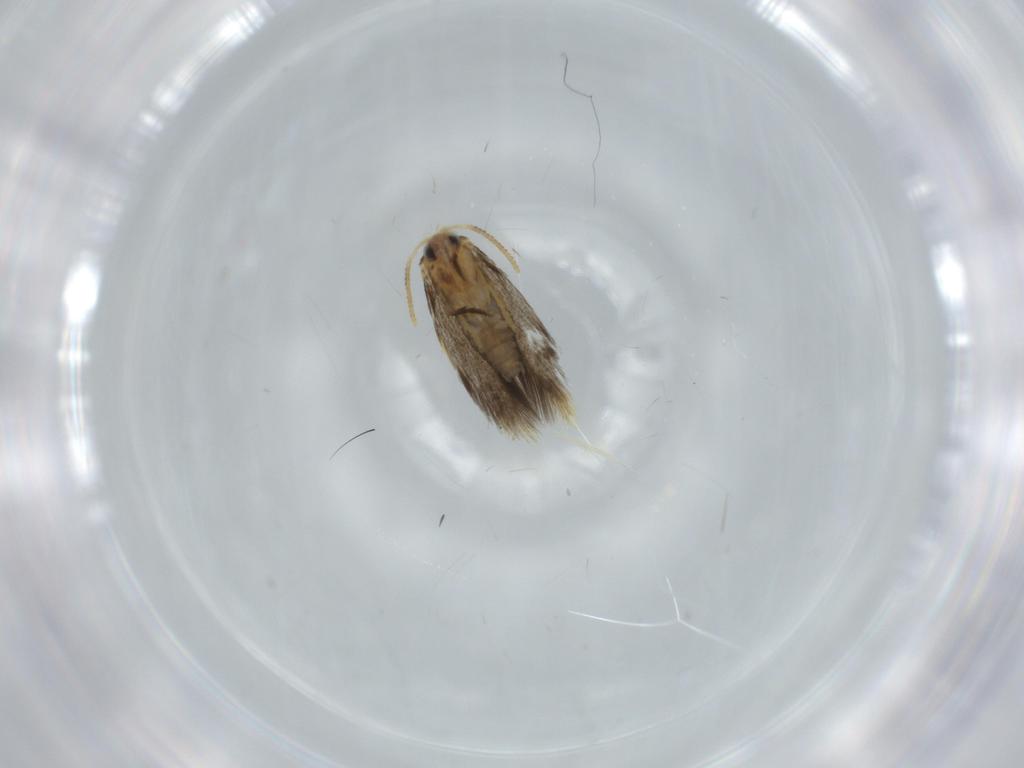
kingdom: Animalia
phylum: Arthropoda
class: Insecta
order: Lepidoptera
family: Copromorphidae
